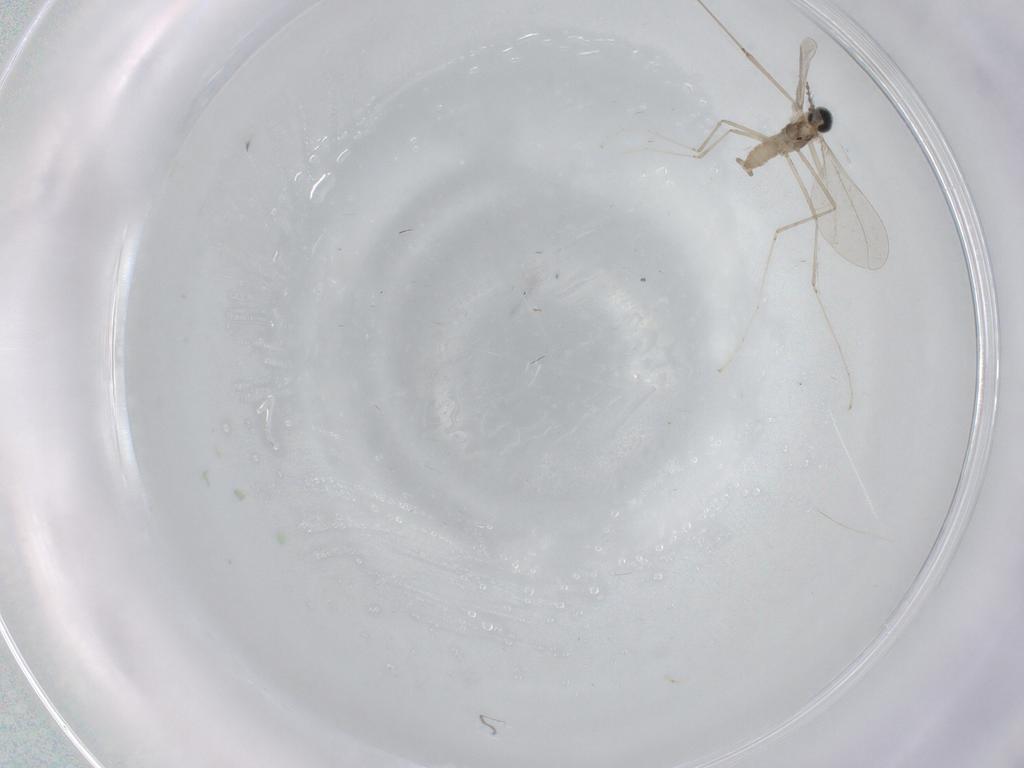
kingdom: Animalia
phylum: Arthropoda
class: Insecta
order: Diptera
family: Cecidomyiidae
